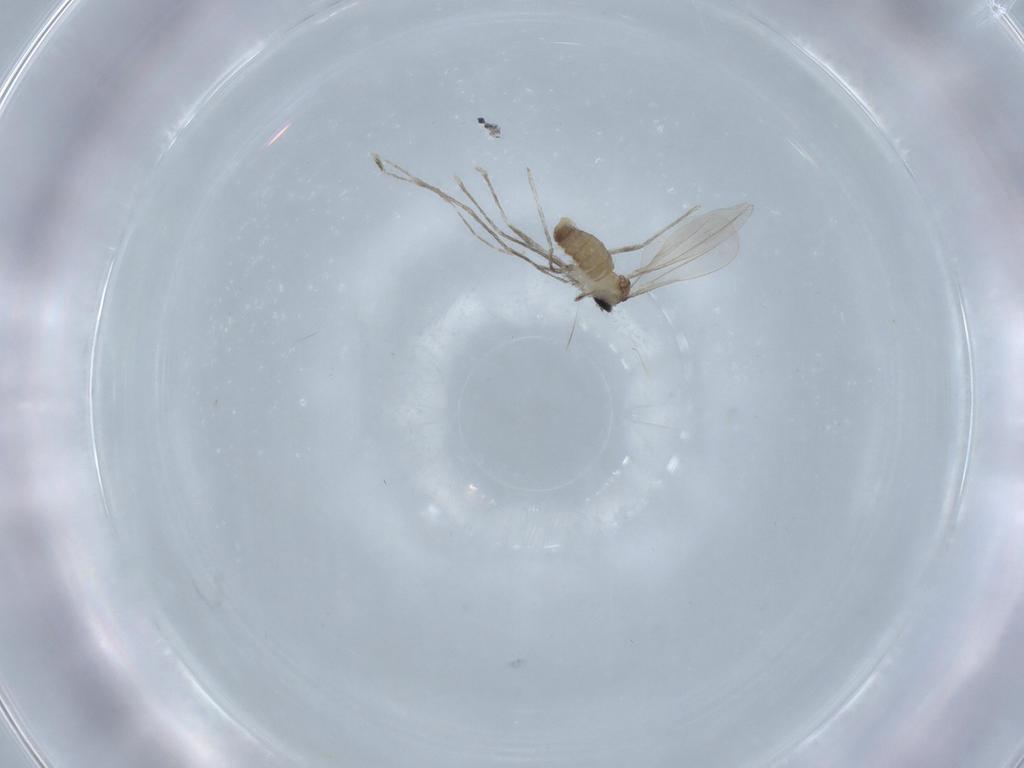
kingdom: Animalia
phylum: Arthropoda
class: Insecta
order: Diptera
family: Cecidomyiidae
